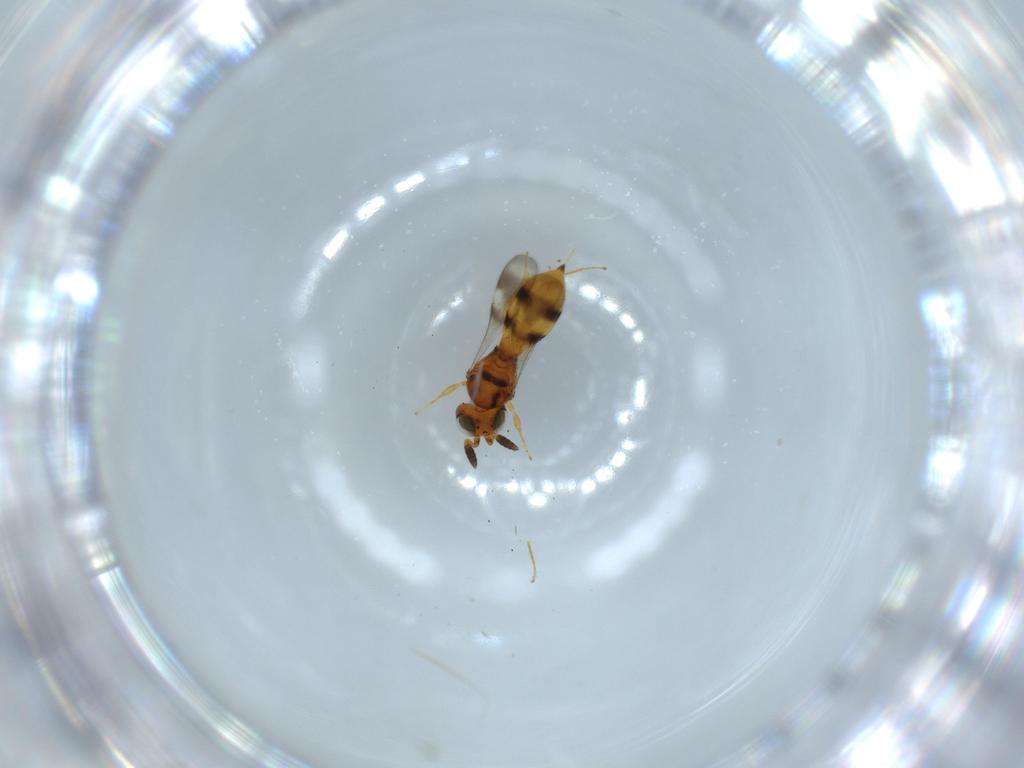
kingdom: Animalia
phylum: Arthropoda
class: Insecta
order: Hymenoptera
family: Scelionidae
